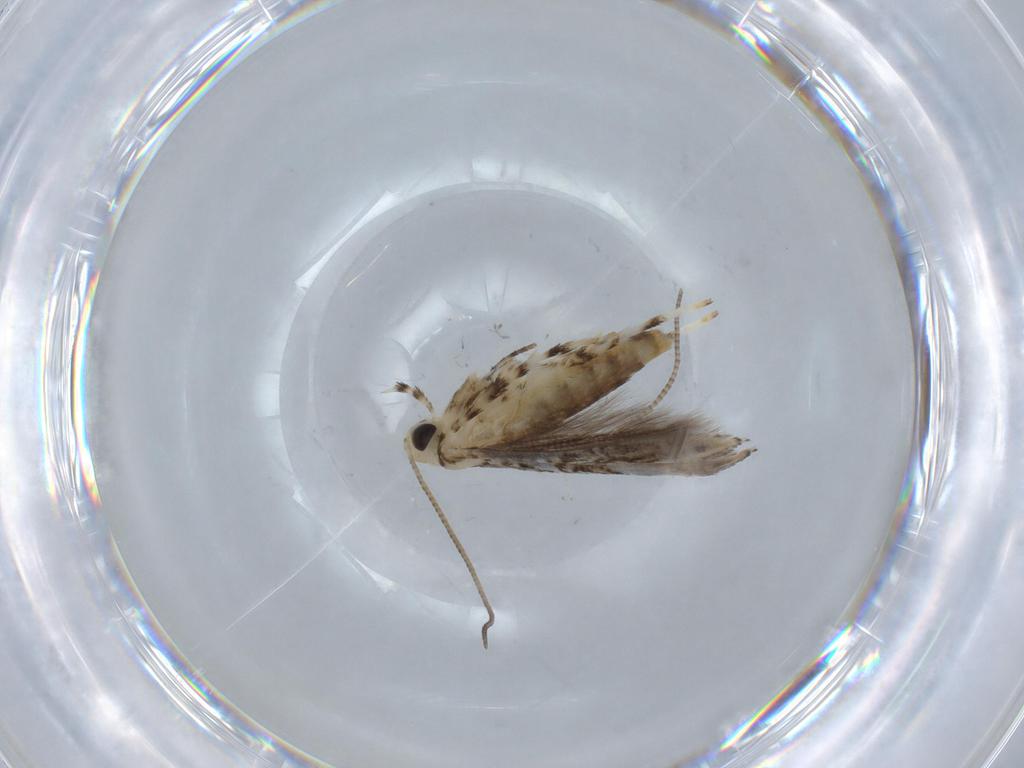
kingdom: Animalia
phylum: Arthropoda
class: Insecta
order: Lepidoptera
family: Gracillariidae
